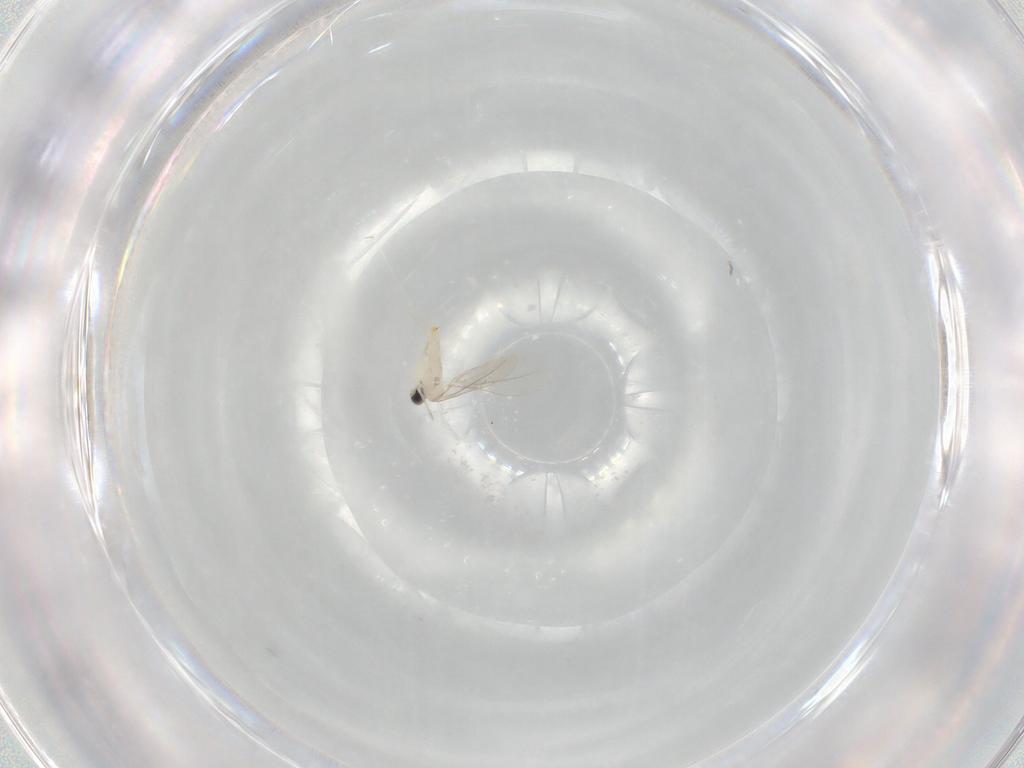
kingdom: Animalia
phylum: Arthropoda
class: Insecta
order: Diptera
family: Cecidomyiidae
